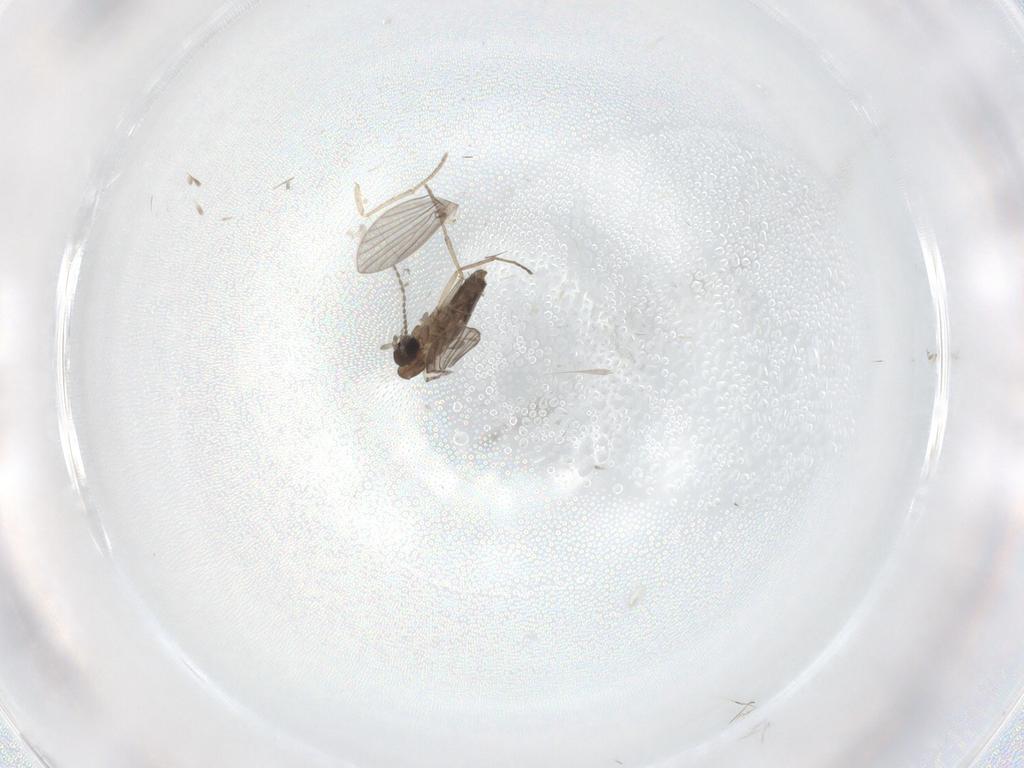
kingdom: Animalia
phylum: Arthropoda
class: Insecta
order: Diptera
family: Cecidomyiidae
